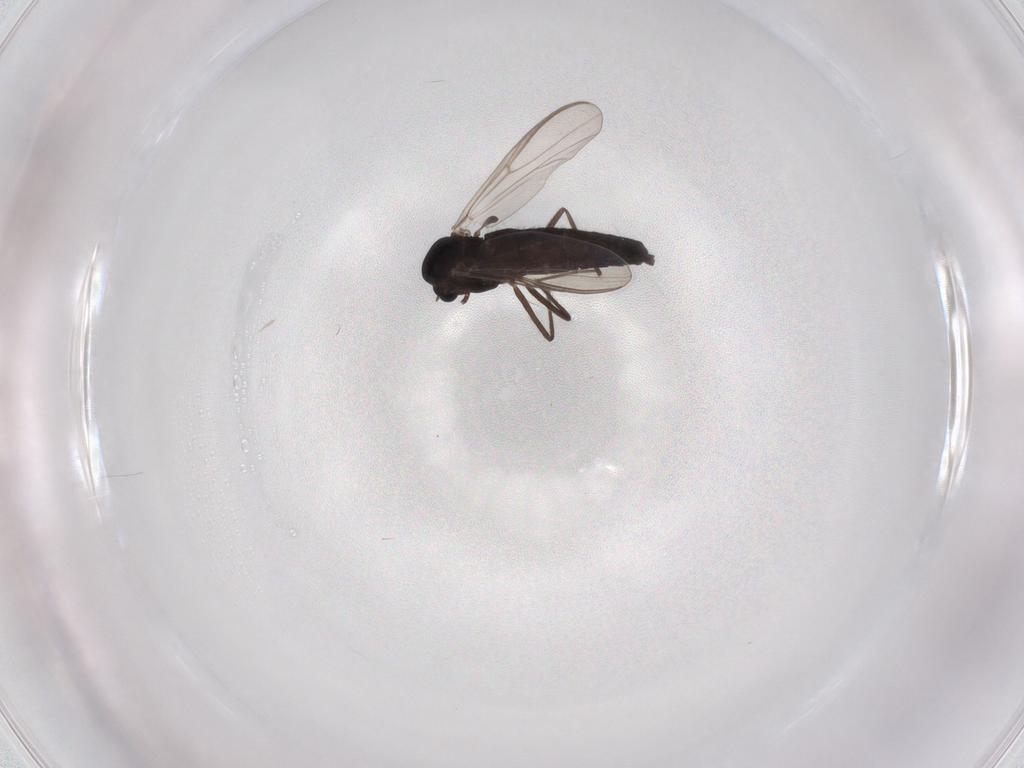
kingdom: Animalia
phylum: Arthropoda
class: Insecta
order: Diptera
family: Chironomidae
